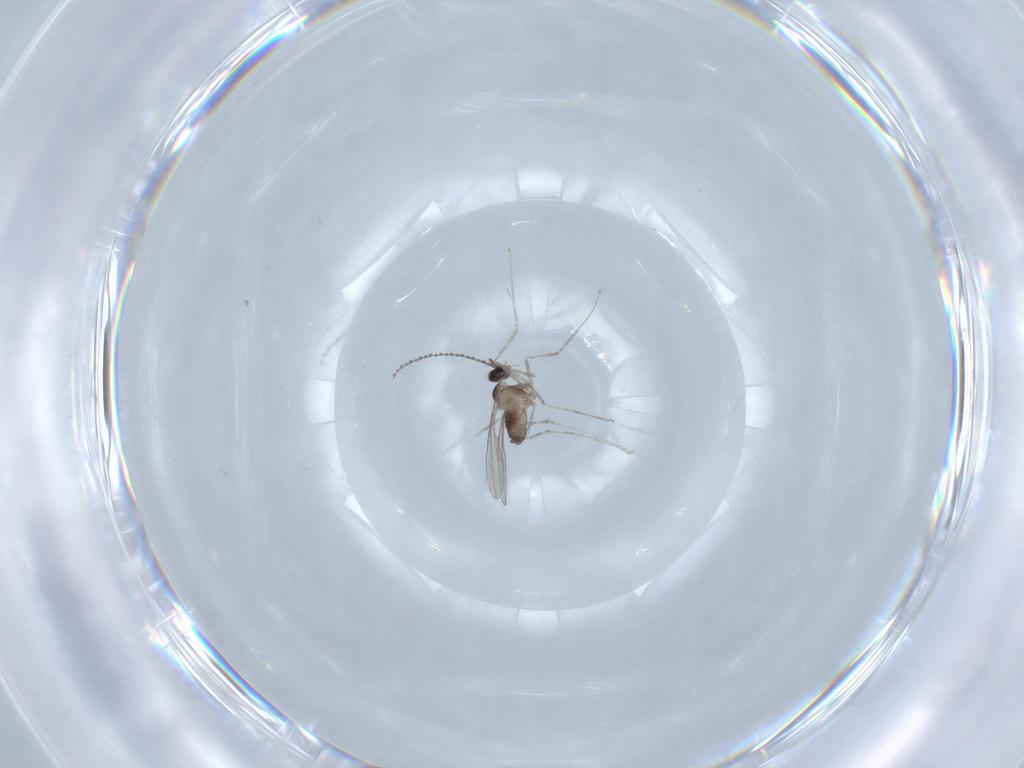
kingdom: Animalia
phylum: Arthropoda
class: Insecta
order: Diptera
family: Cecidomyiidae
